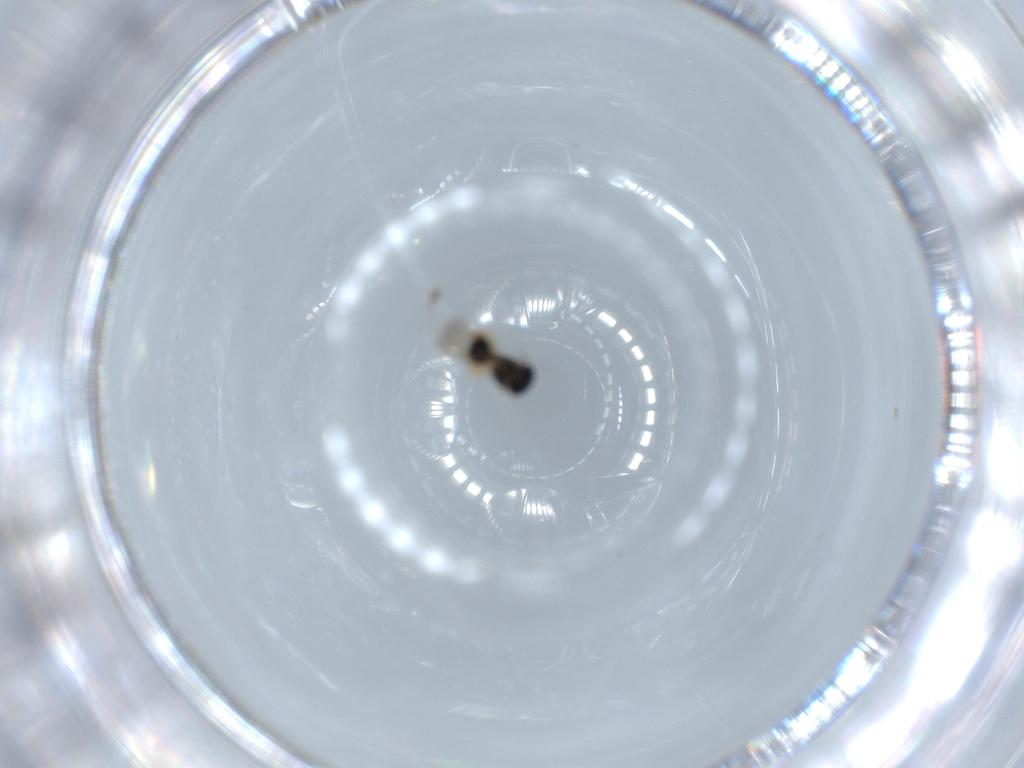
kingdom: Animalia
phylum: Arthropoda
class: Insecta
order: Hymenoptera
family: Scelionidae
